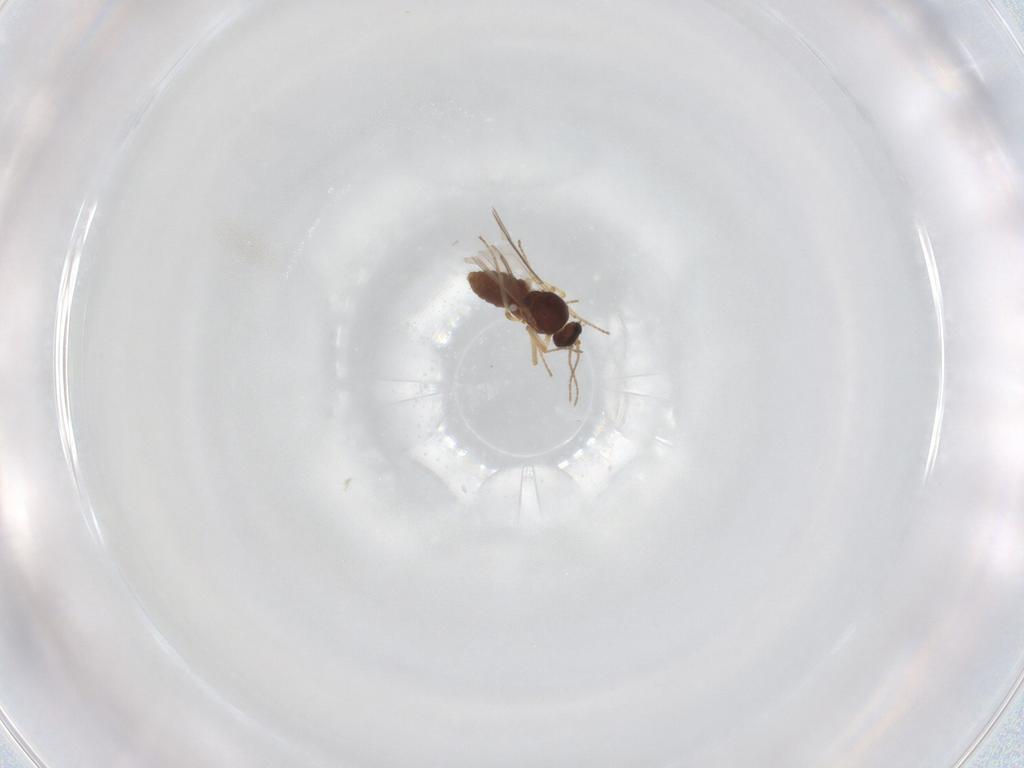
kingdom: Animalia
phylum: Arthropoda
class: Insecta
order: Diptera
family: Ceratopogonidae
